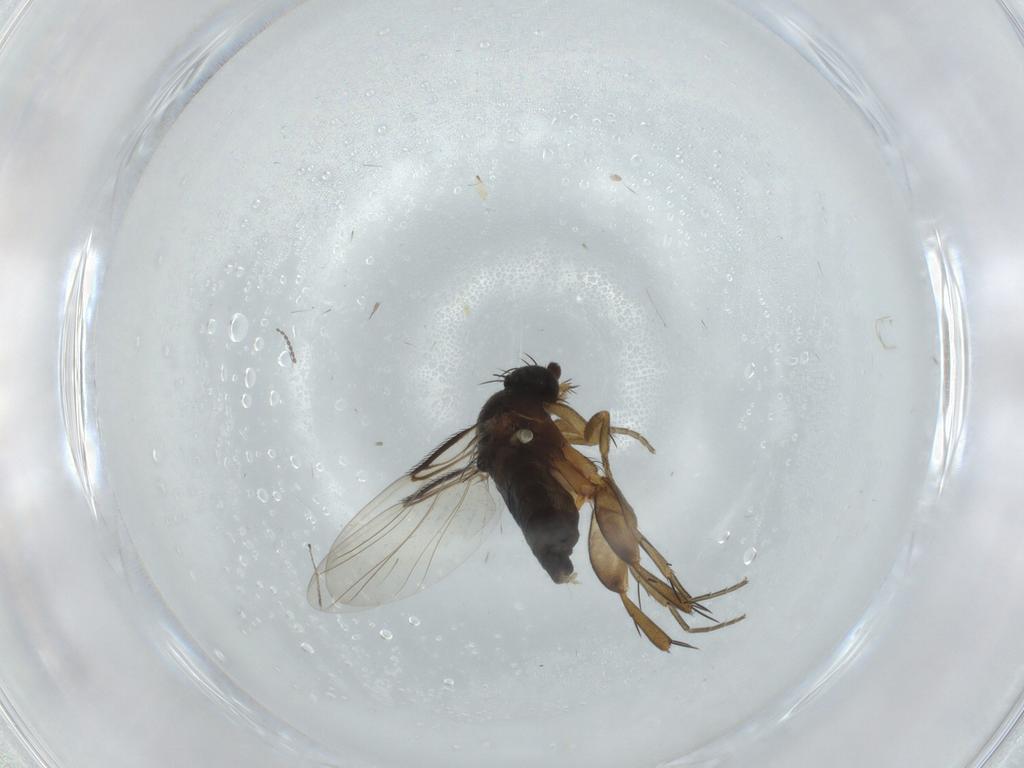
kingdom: Animalia
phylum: Arthropoda
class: Insecta
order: Diptera
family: Phoridae
